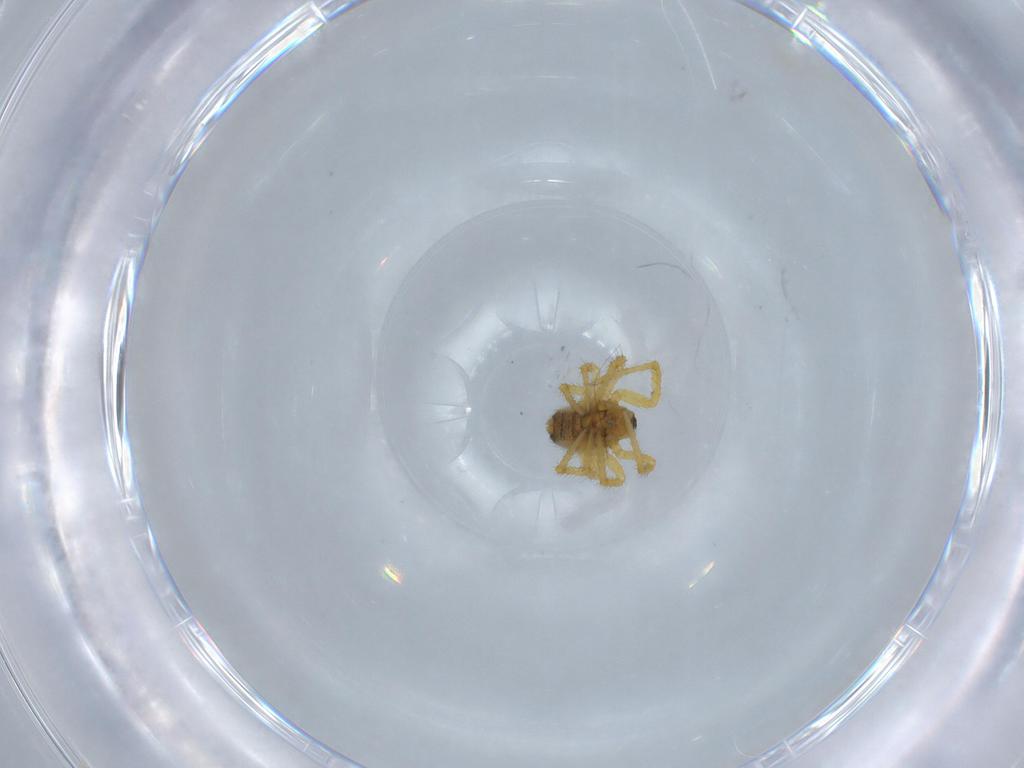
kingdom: Animalia
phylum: Arthropoda
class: Arachnida
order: Araneae
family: Theridiidae
